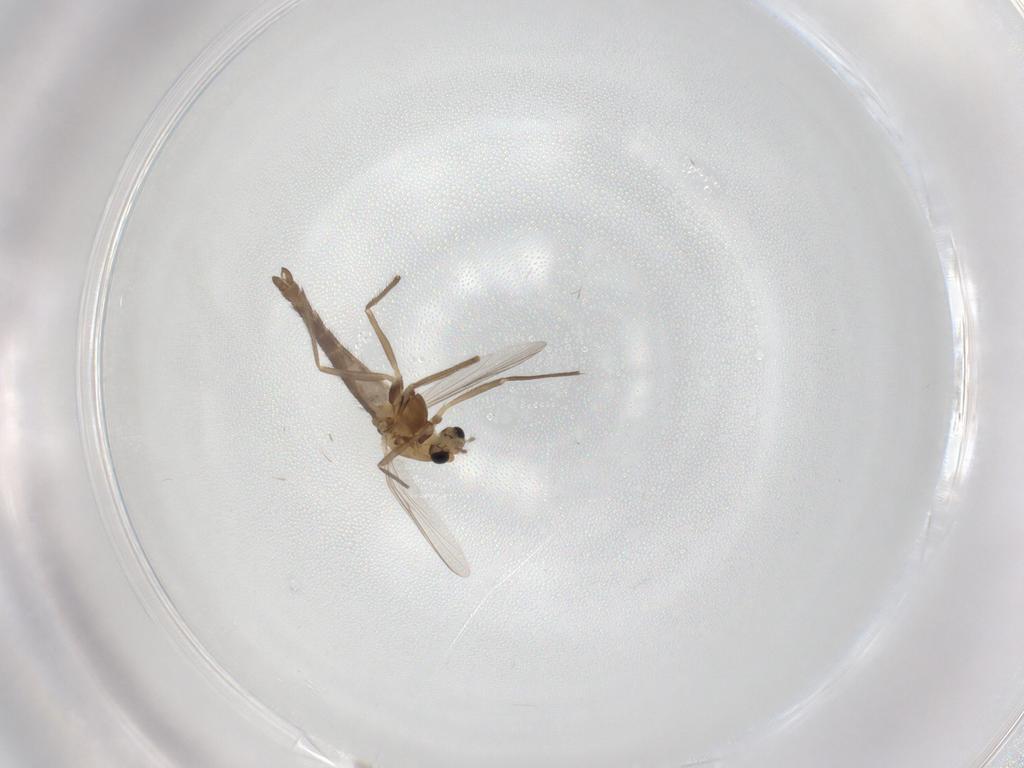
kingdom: Animalia
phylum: Arthropoda
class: Insecta
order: Diptera
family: Chironomidae
